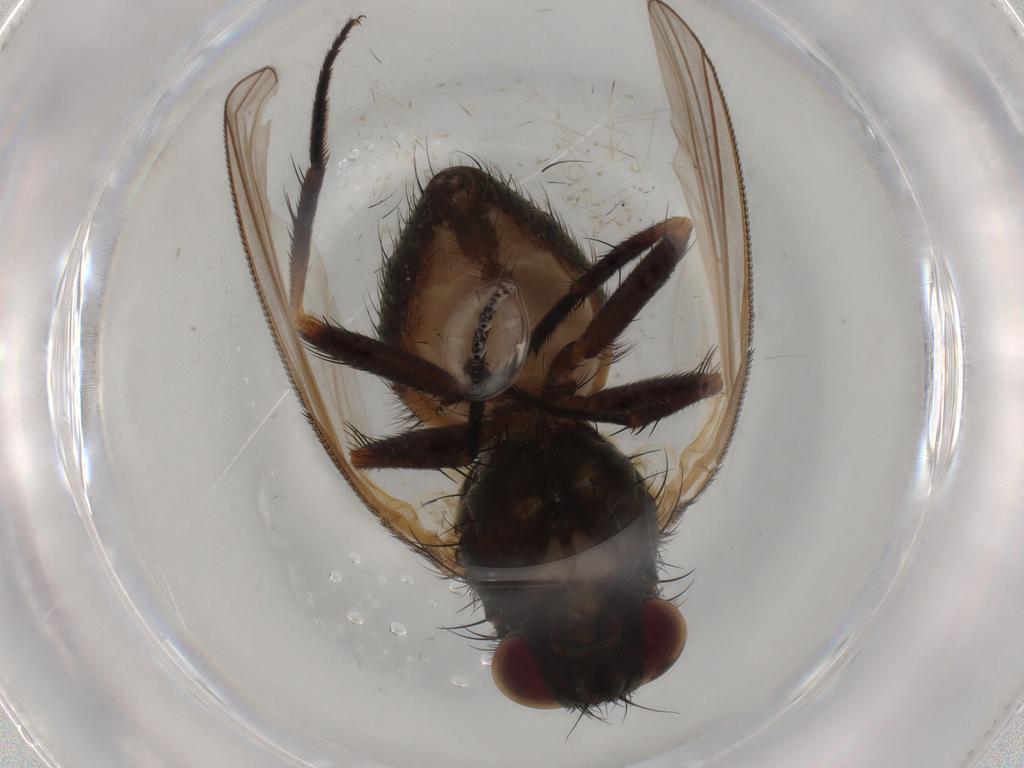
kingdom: Animalia
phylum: Arthropoda
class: Insecta
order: Diptera
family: Fannia
